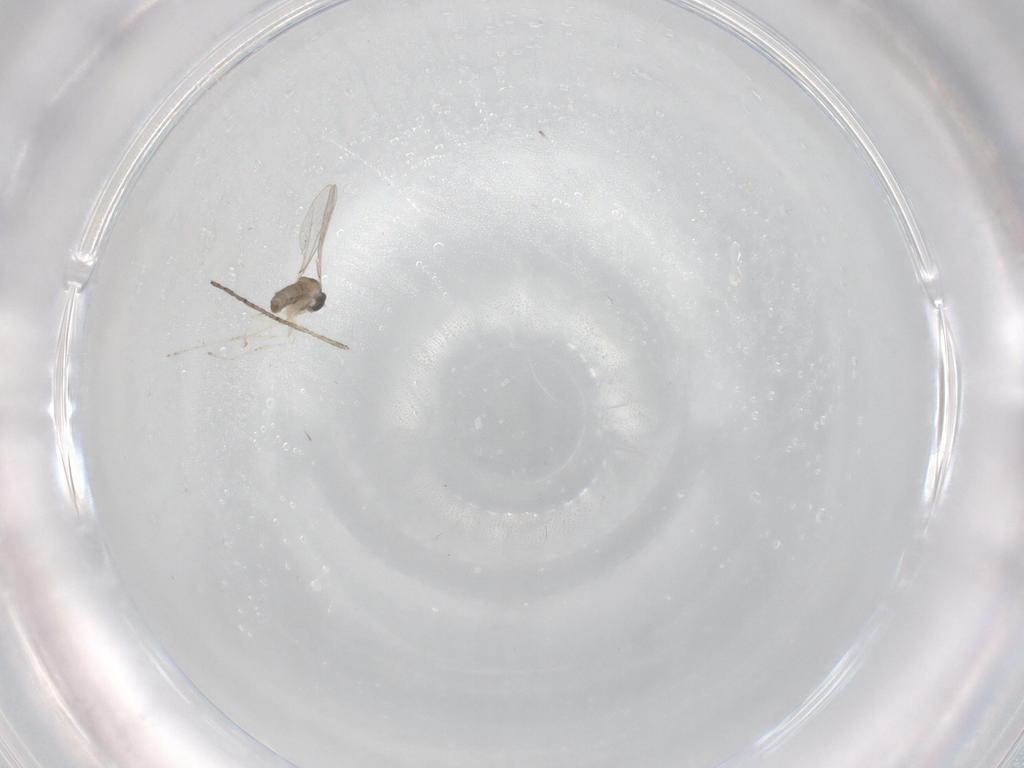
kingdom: Animalia
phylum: Arthropoda
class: Insecta
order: Diptera
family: Cecidomyiidae
